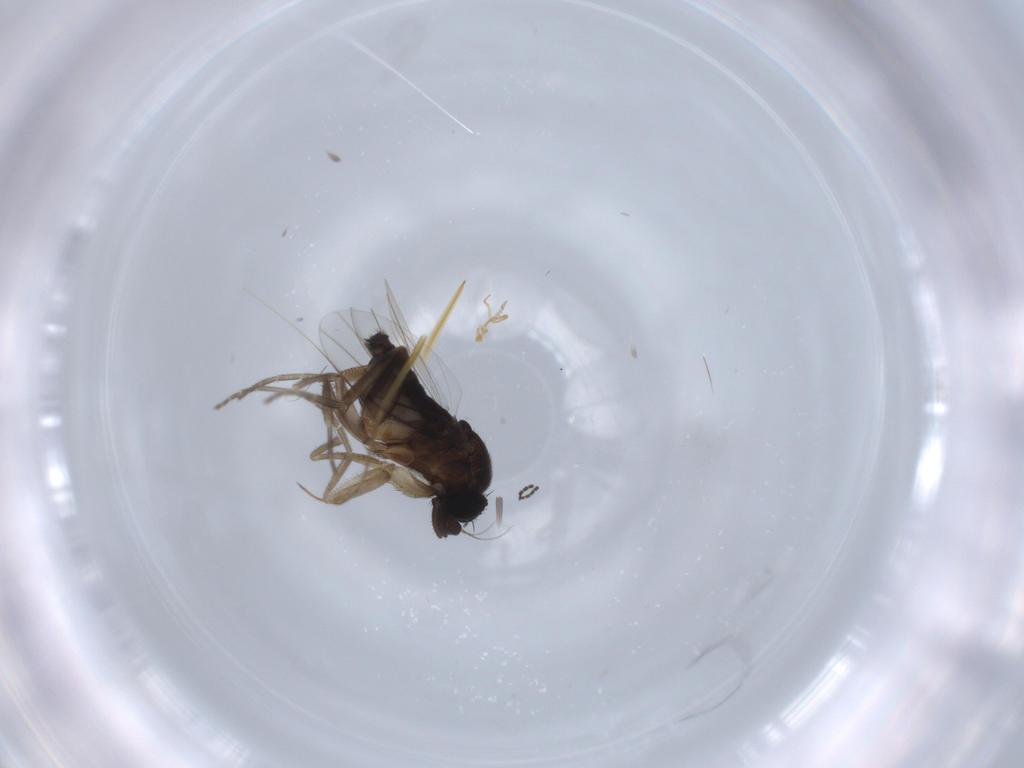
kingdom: Animalia
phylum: Arthropoda
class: Insecta
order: Diptera
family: Phoridae
